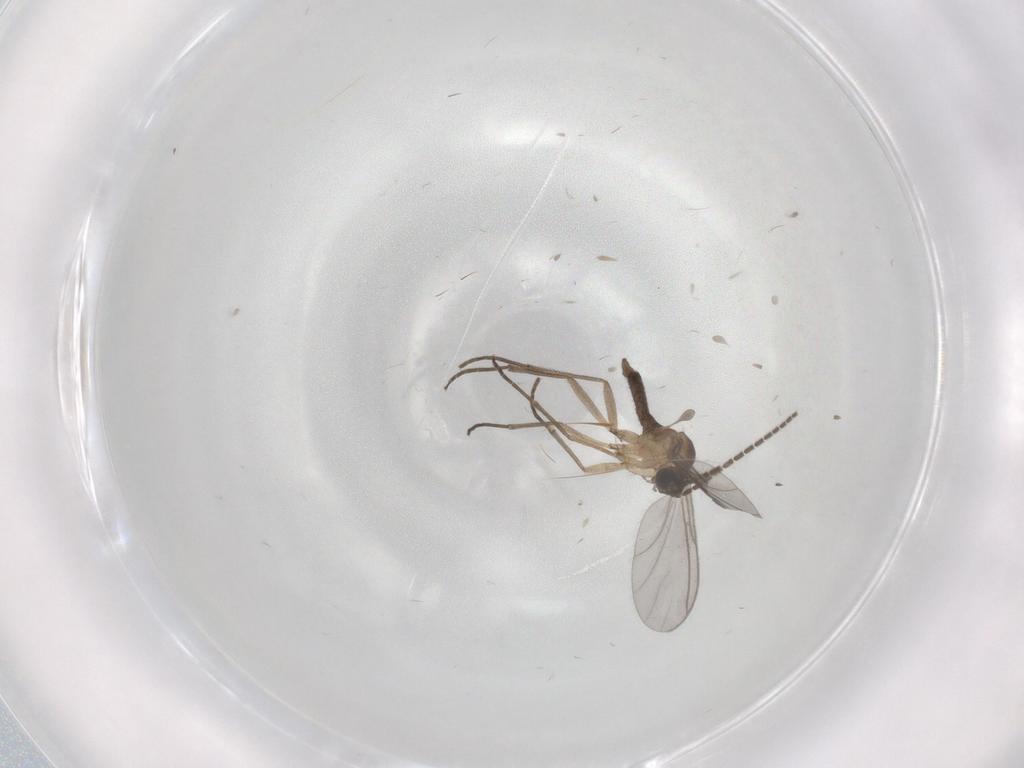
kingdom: Animalia
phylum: Arthropoda
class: Insecta
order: Diptera
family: Sciaridae
